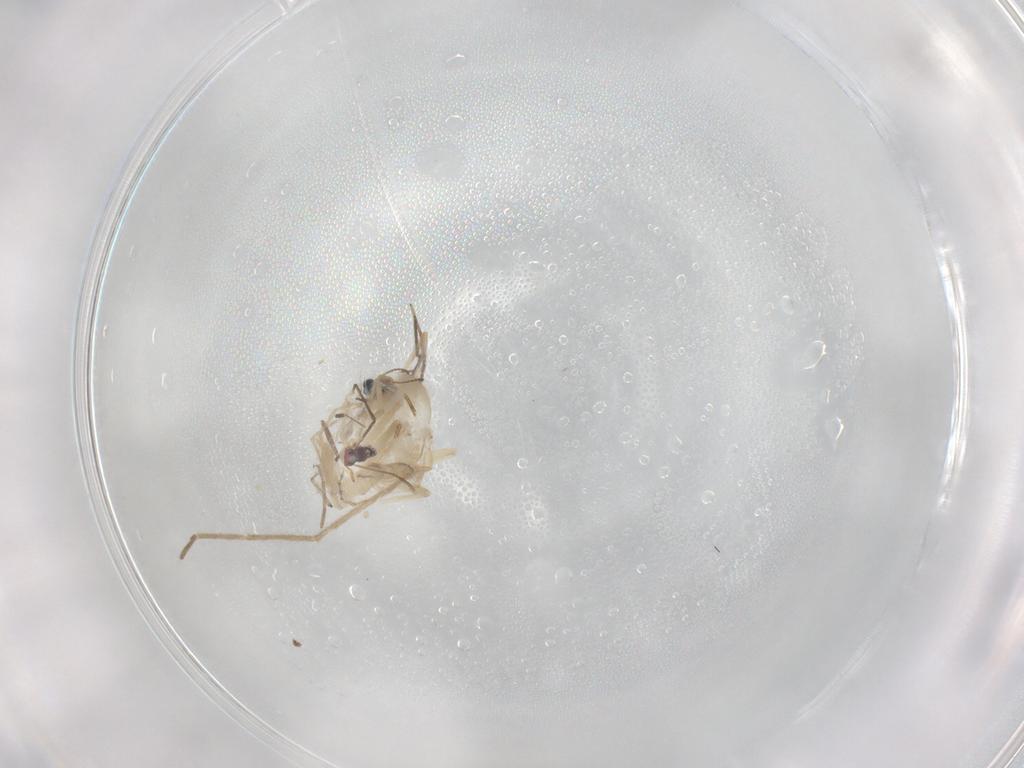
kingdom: Animalia
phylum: Arthropoda
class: Insecta
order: Diptera
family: Chironomidae
